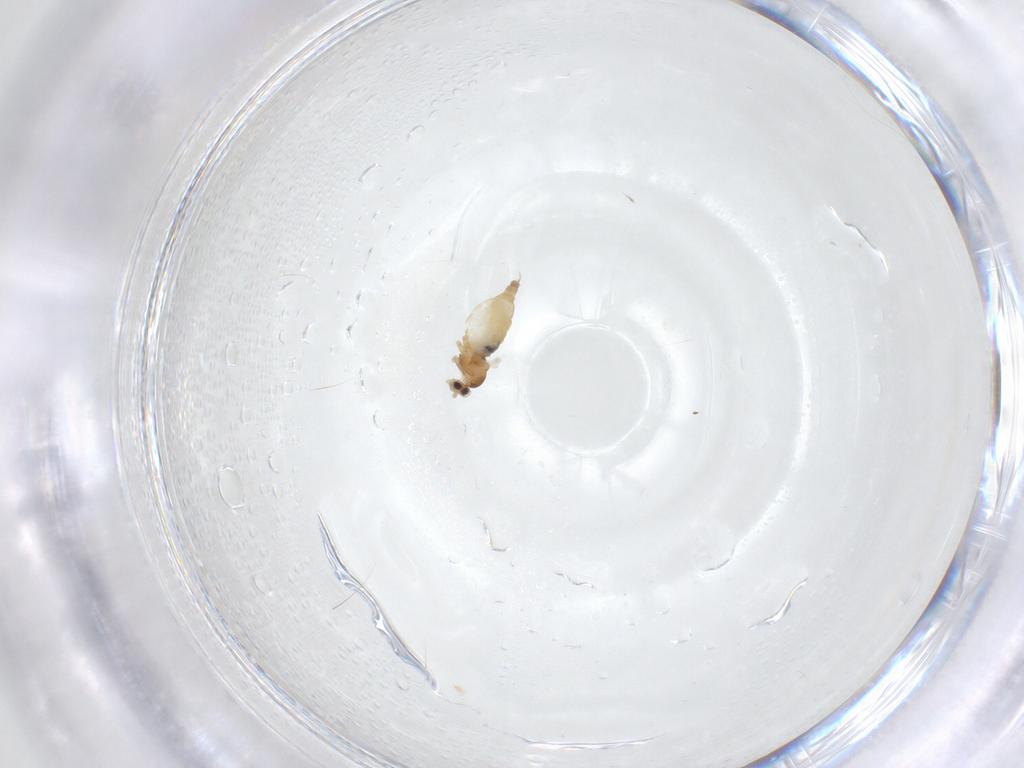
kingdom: Animalia
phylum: Arthropoda
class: Insecta
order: Diptera
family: Cecidomyiidae
